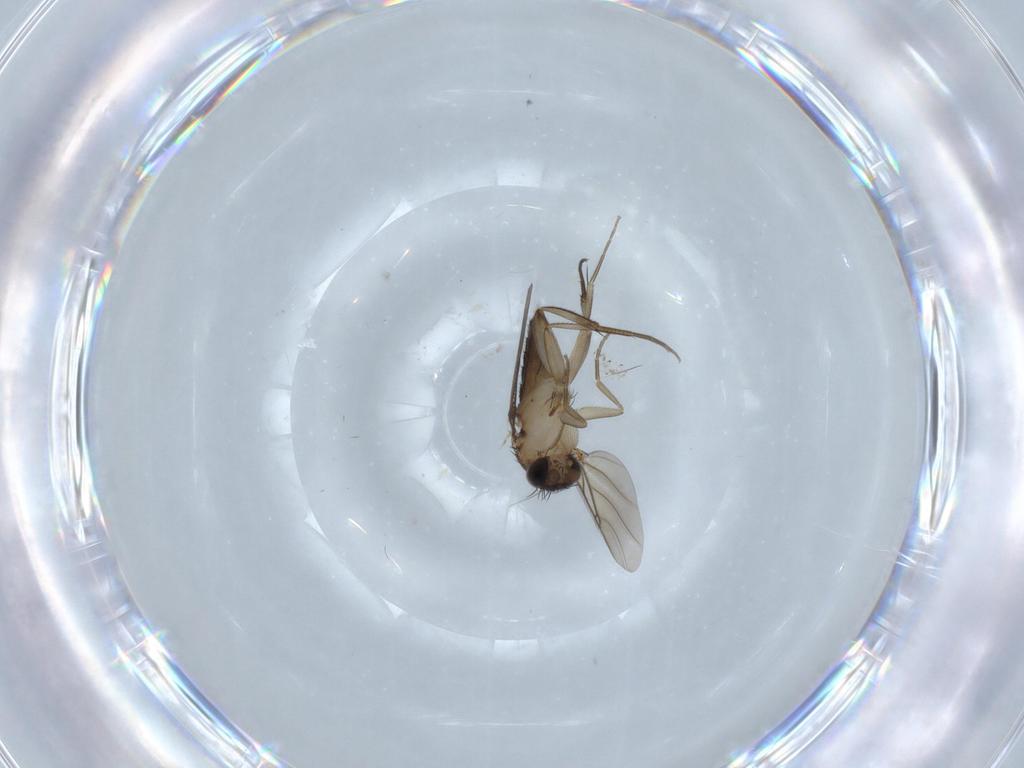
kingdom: Animalia
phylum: Arthropoda
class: Insecta
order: Diptera
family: Phoridae
